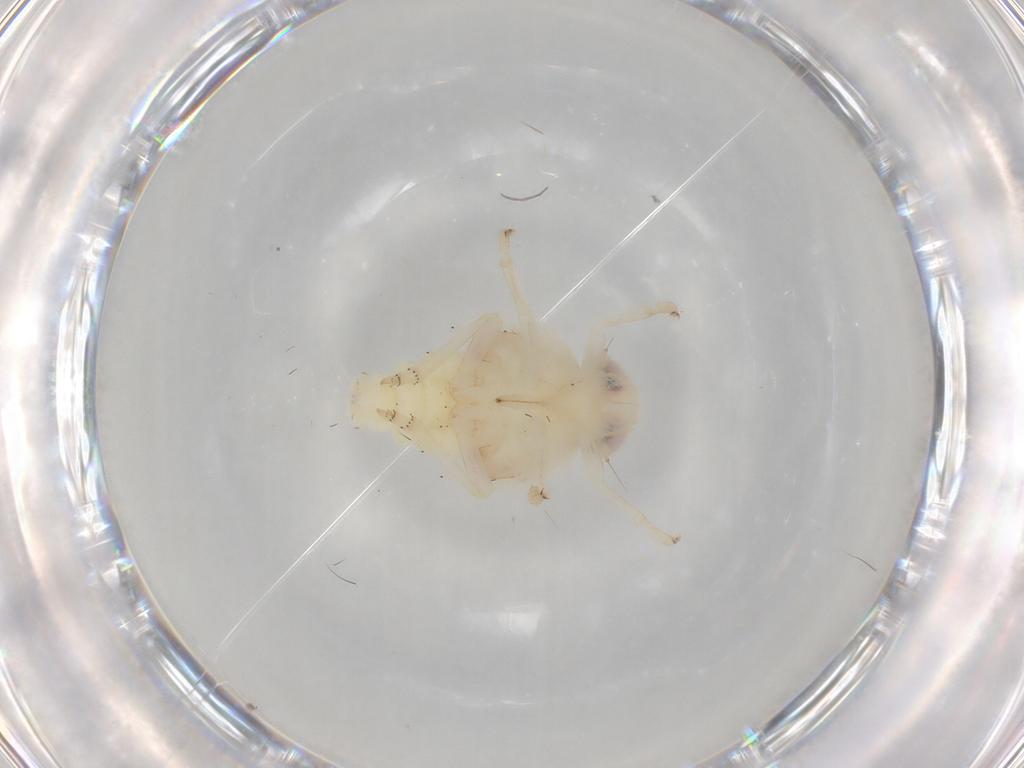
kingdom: Animalia
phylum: Arthropoda
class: Insecta
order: Hemiptera
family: Nogodinidae
